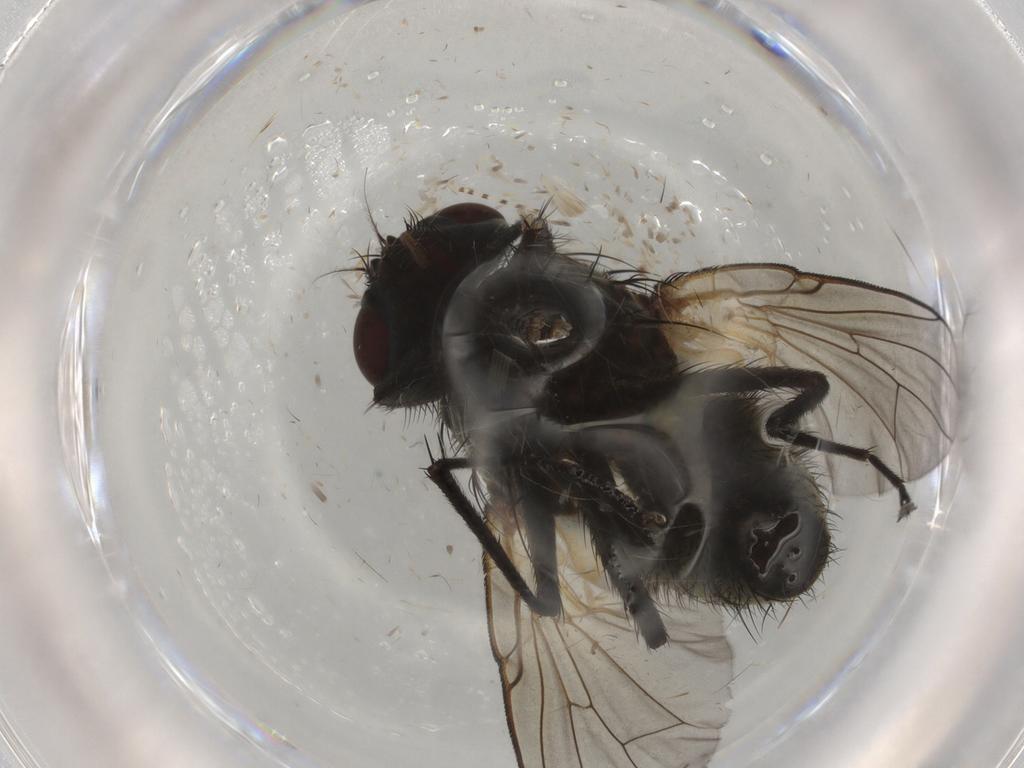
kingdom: Animalia
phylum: Arthropoda
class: Insecta
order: Diptera
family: Muscidae
